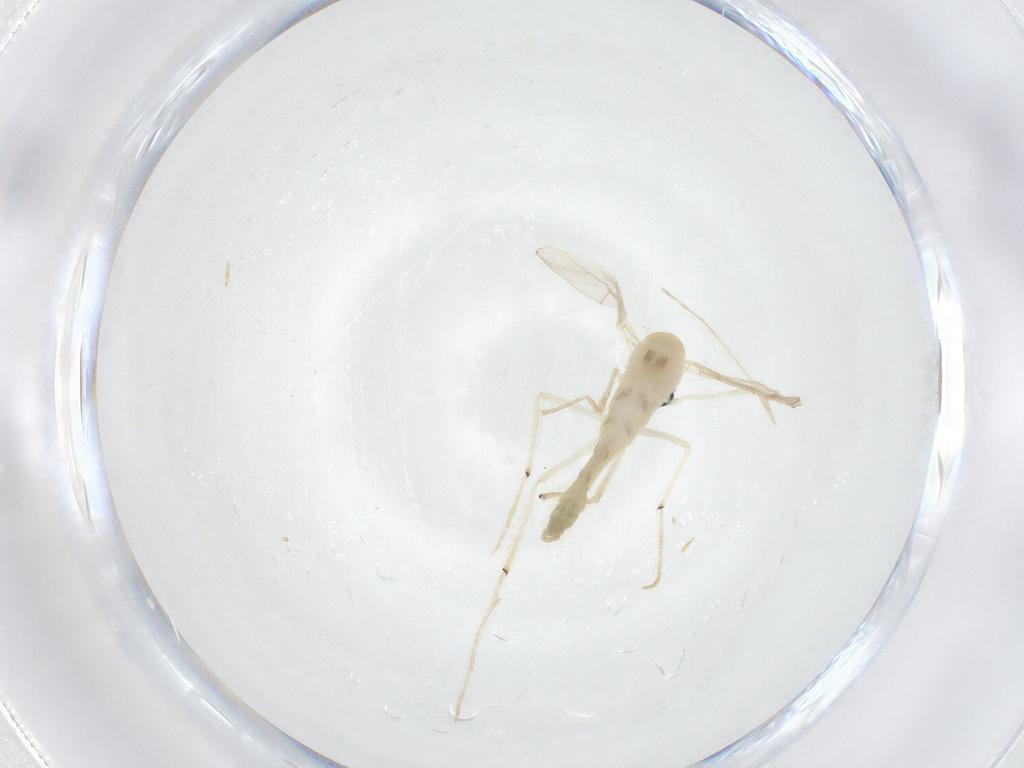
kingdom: Animalia
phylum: Arthropoda
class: Insecta
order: Diptera
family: Chironomidae
